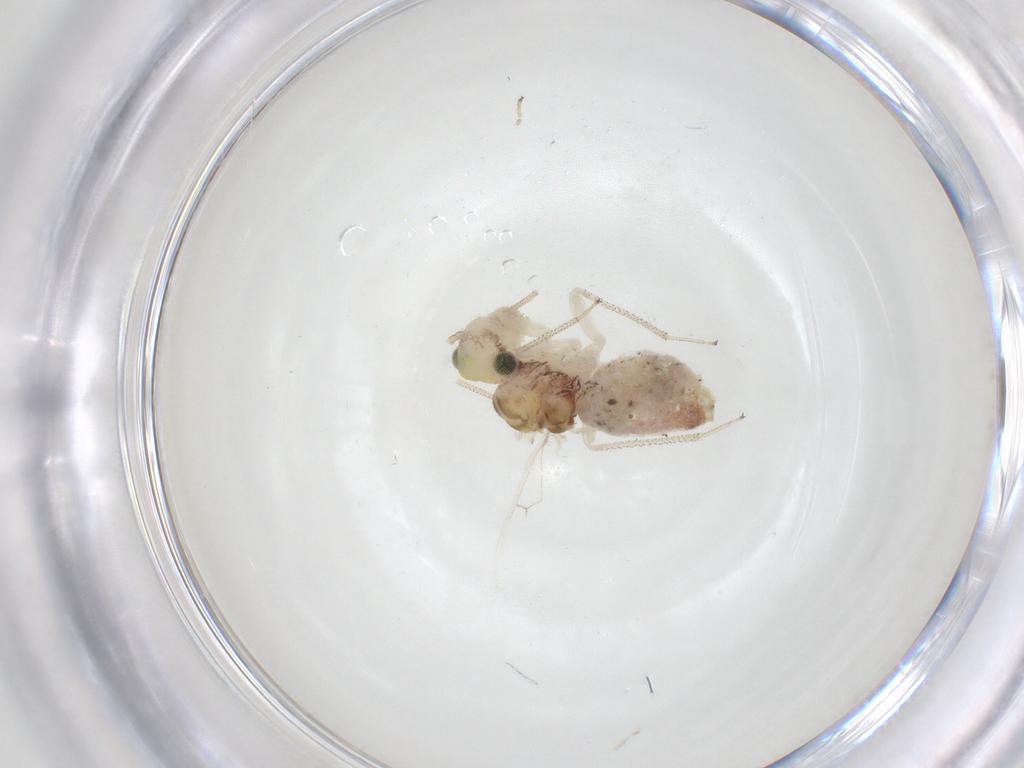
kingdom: Animalia
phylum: Arthropoda
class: Insecta
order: Psocodea
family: Pseudocaeciliidae
